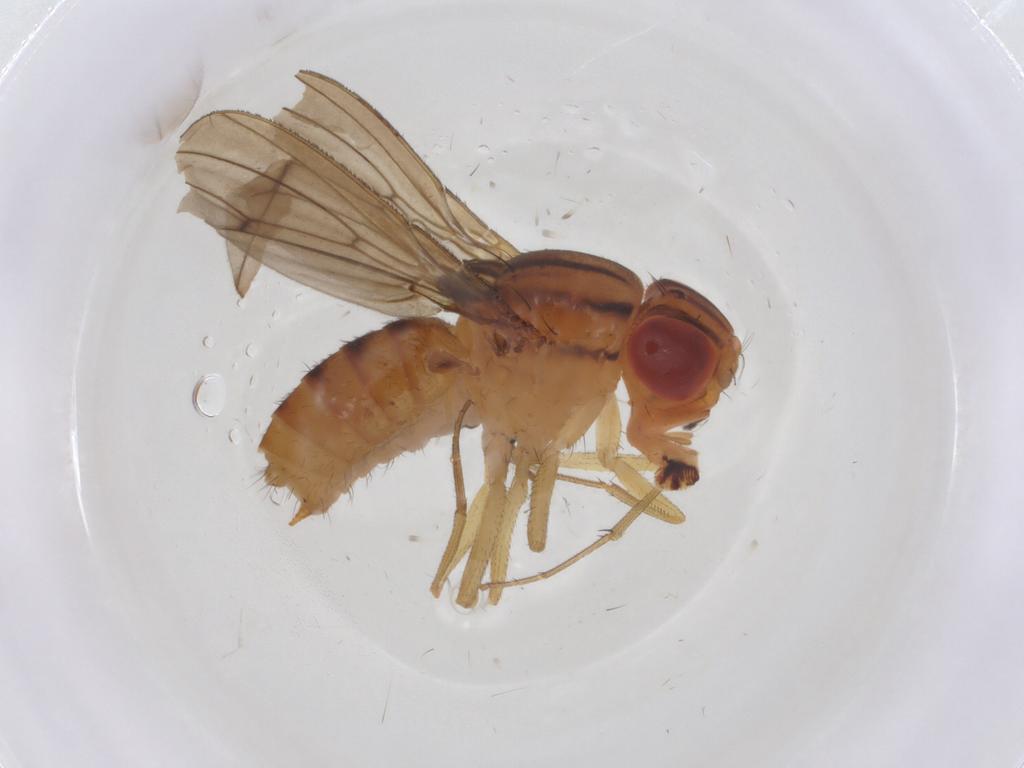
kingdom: Animalia
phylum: Arthropoda
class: Insecta
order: Diptera
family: Drosophilidae
